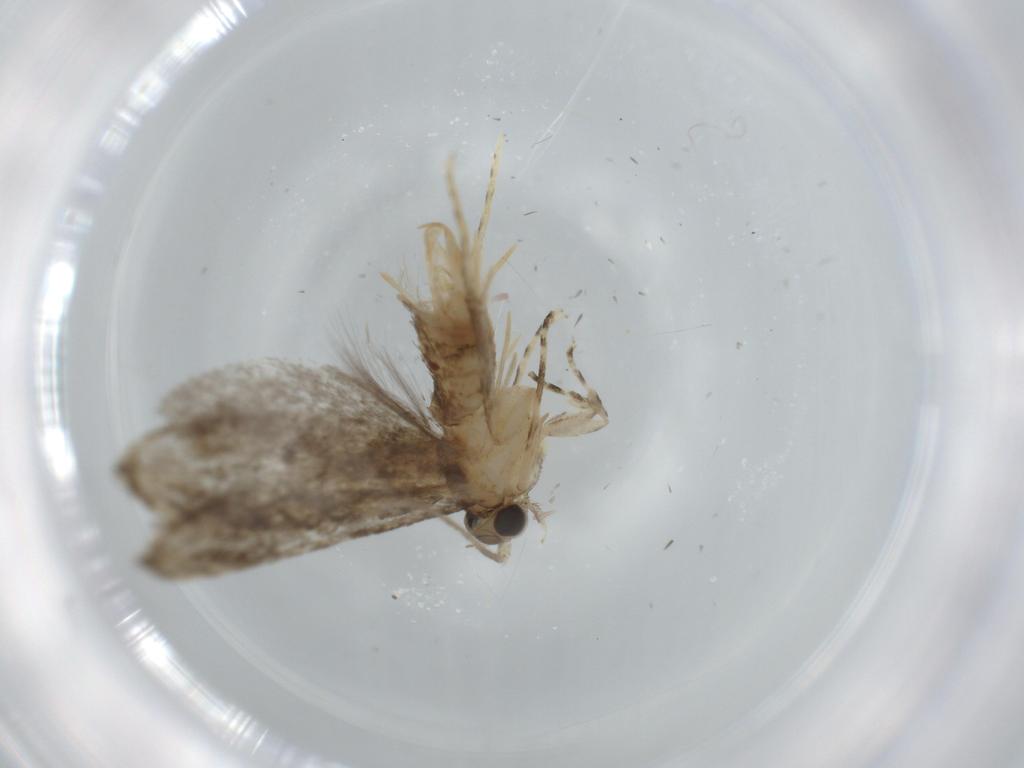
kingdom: Animalia
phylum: Arthropoda
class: Insecta
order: Lepidoptera
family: Tineidae
